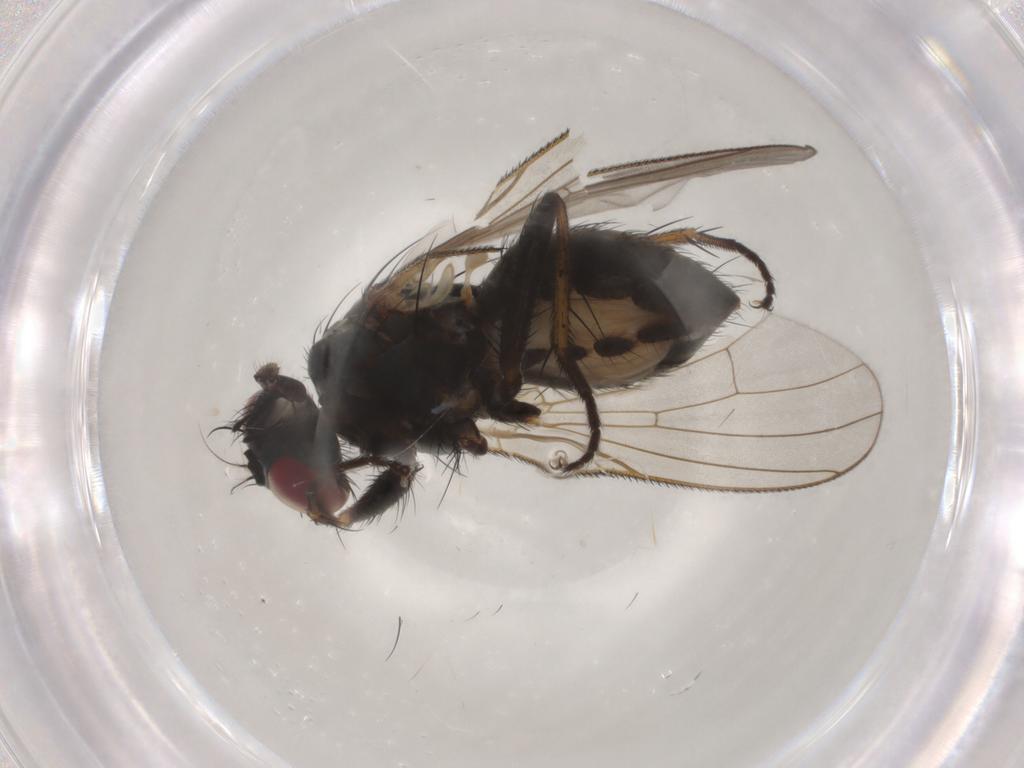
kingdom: Animalia
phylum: Arthropoda
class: Insecta
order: Diptera
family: Muscidae
